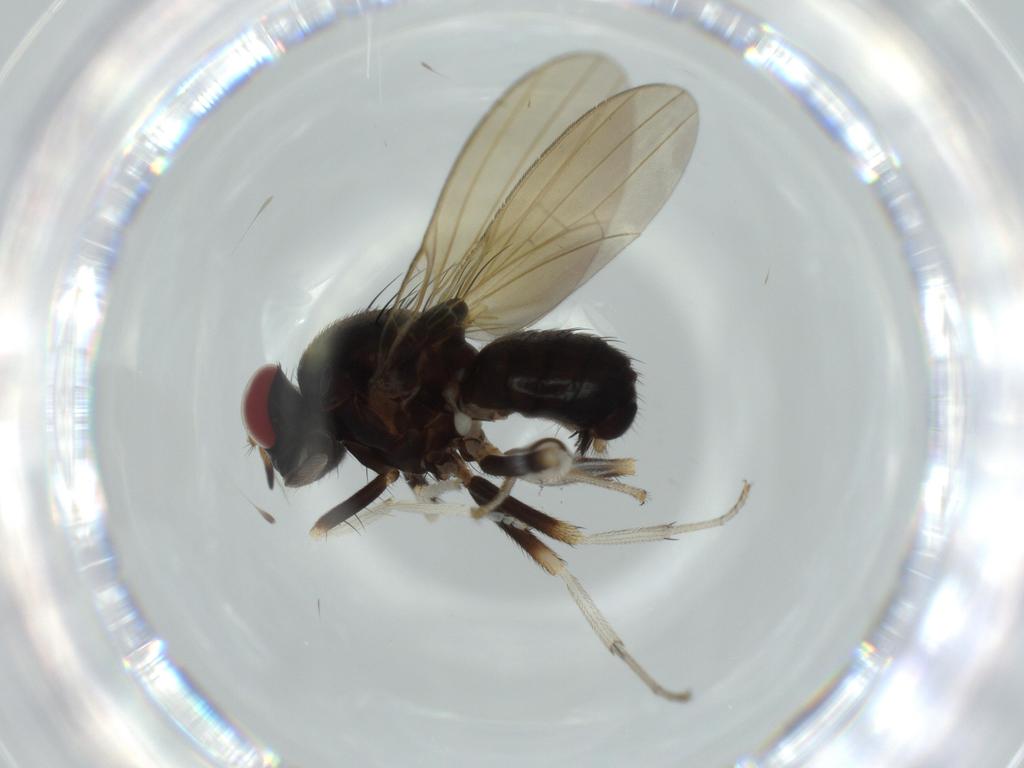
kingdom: Animalia
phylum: Arthropoda
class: Insecta
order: Diptera
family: Lauxaniidae
